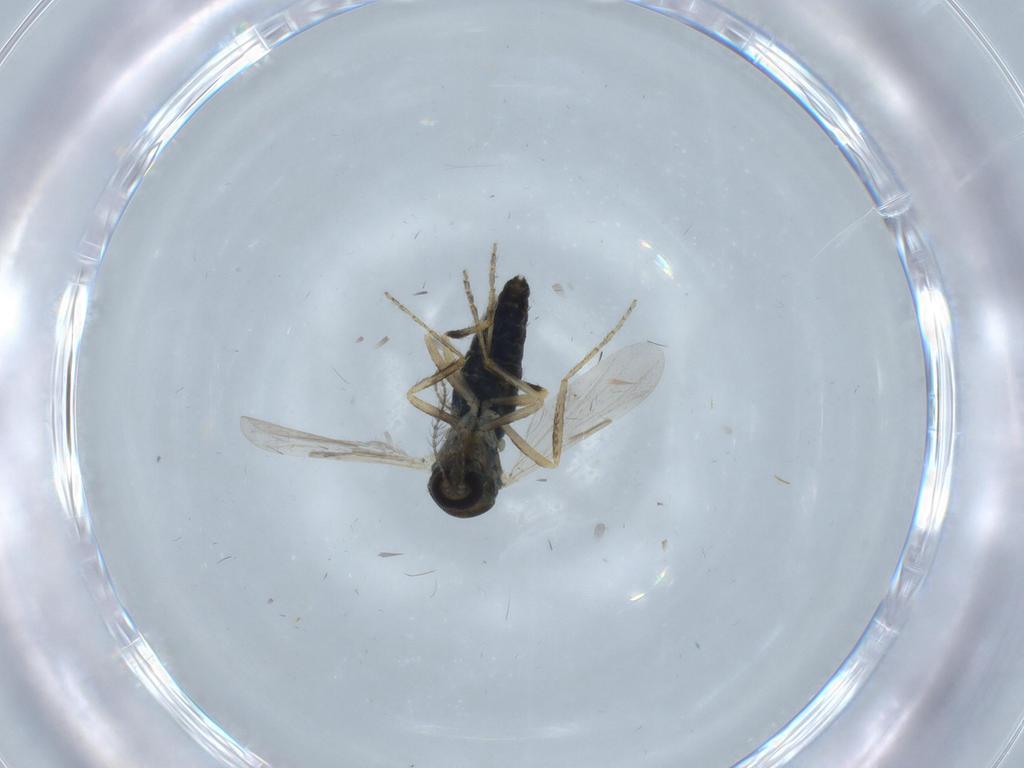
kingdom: Animalia
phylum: Arthropoda
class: Insecta
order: Diptera
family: Ceratopogonidae
